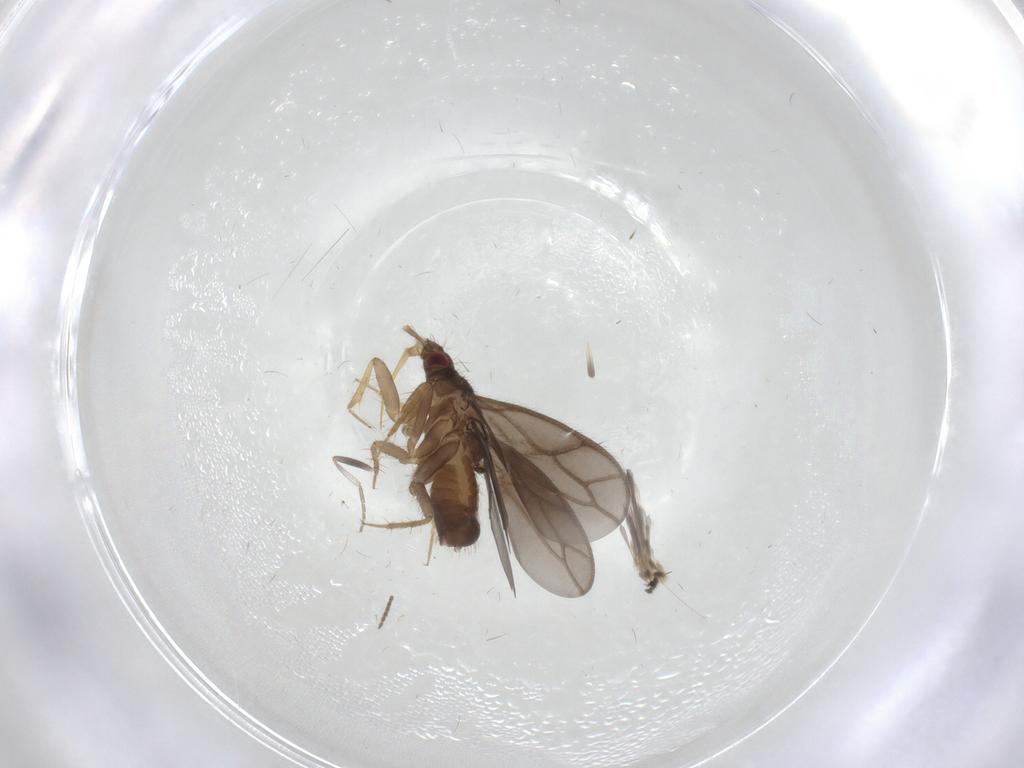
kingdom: Animalia
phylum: Arthropoda
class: Insecta
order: Diptera
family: Phoridae
